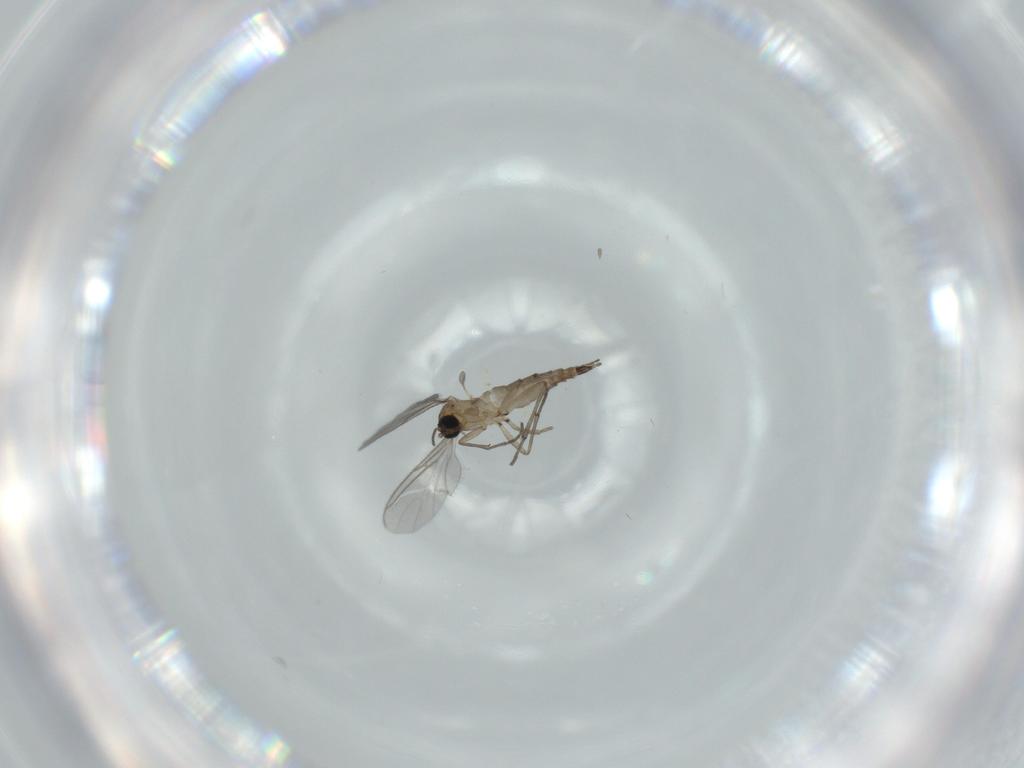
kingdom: Animalia
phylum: Arthropoda
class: Insecta
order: Diptera
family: Sciaridae
